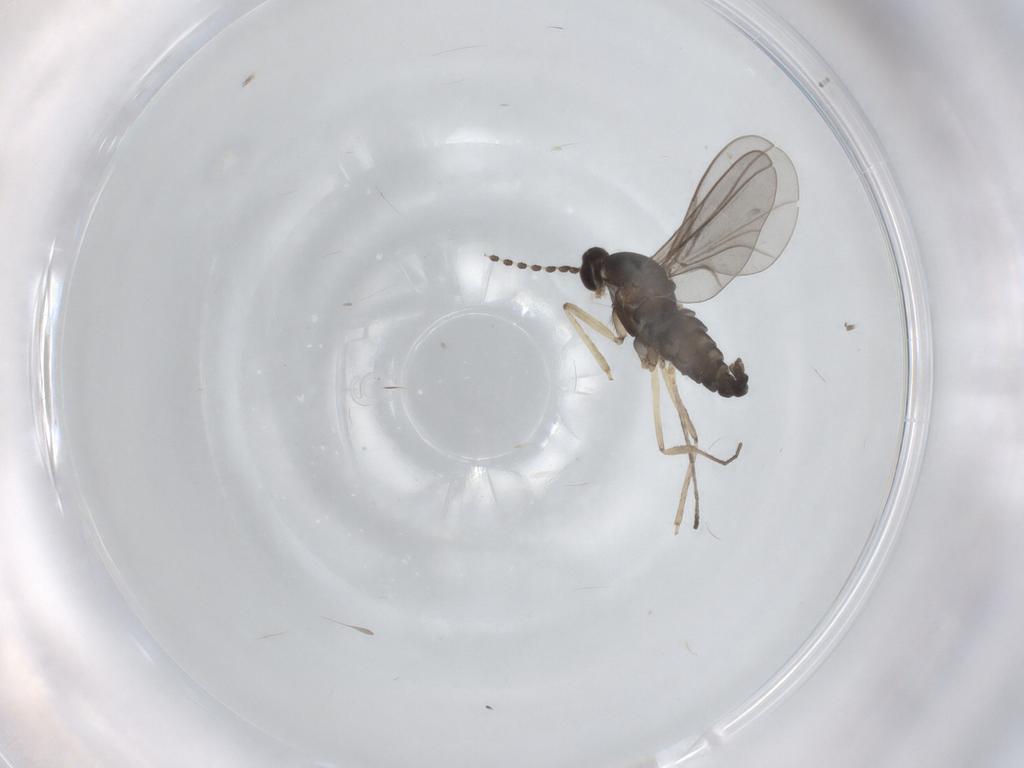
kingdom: Animalia
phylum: Arthropoda
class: Insecta
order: Diptera
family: Cecidomyiidae
